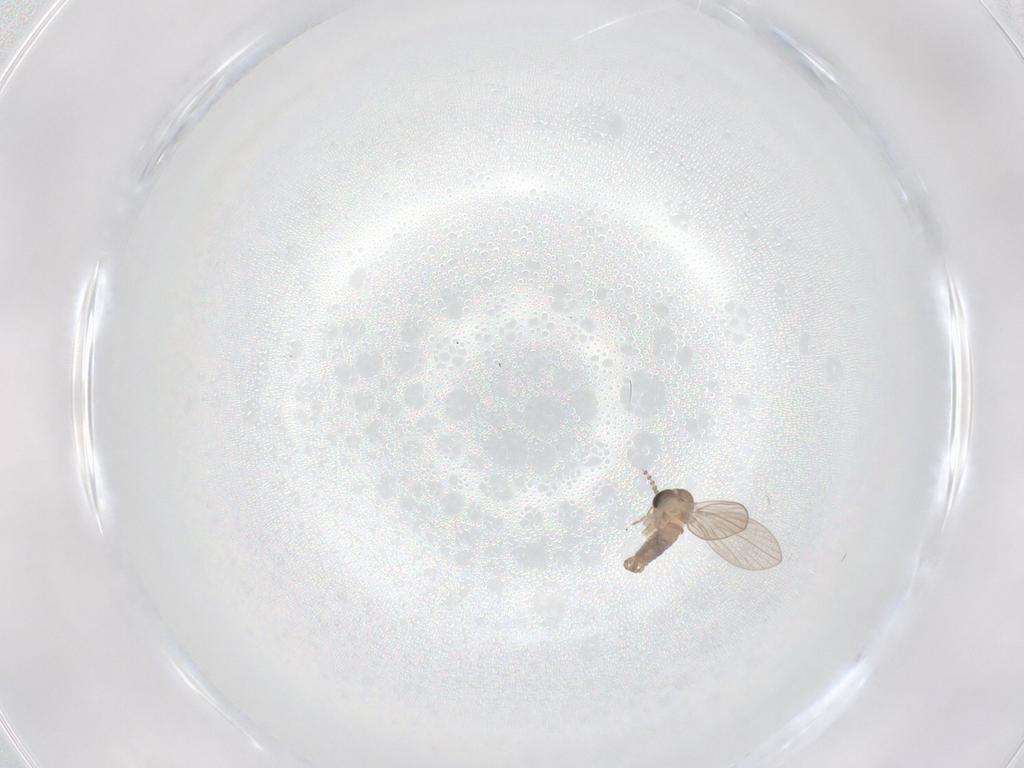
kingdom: Animalia
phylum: Arthropoda
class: Insecta
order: Diptera
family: Psychodidae
